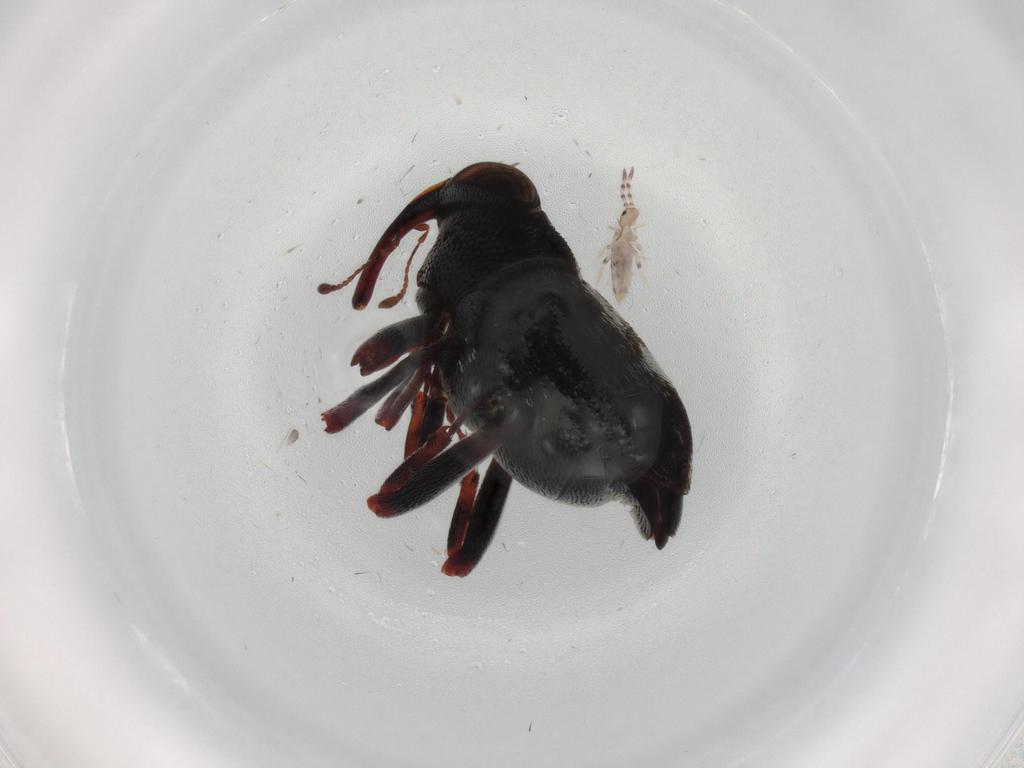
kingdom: Animalia
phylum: Arthropoda
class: Insecta
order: Coleoptera
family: Curculionidae
